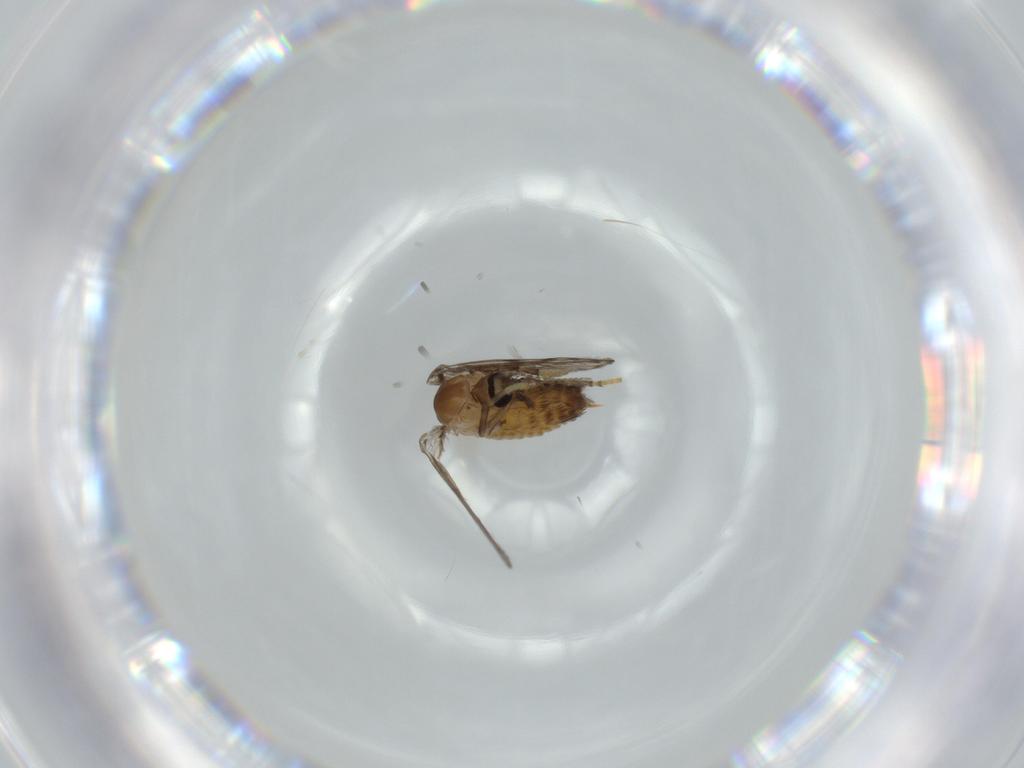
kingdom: Animalia
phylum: Arthropoda
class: Insecta
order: Diptera
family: Psychodidae
